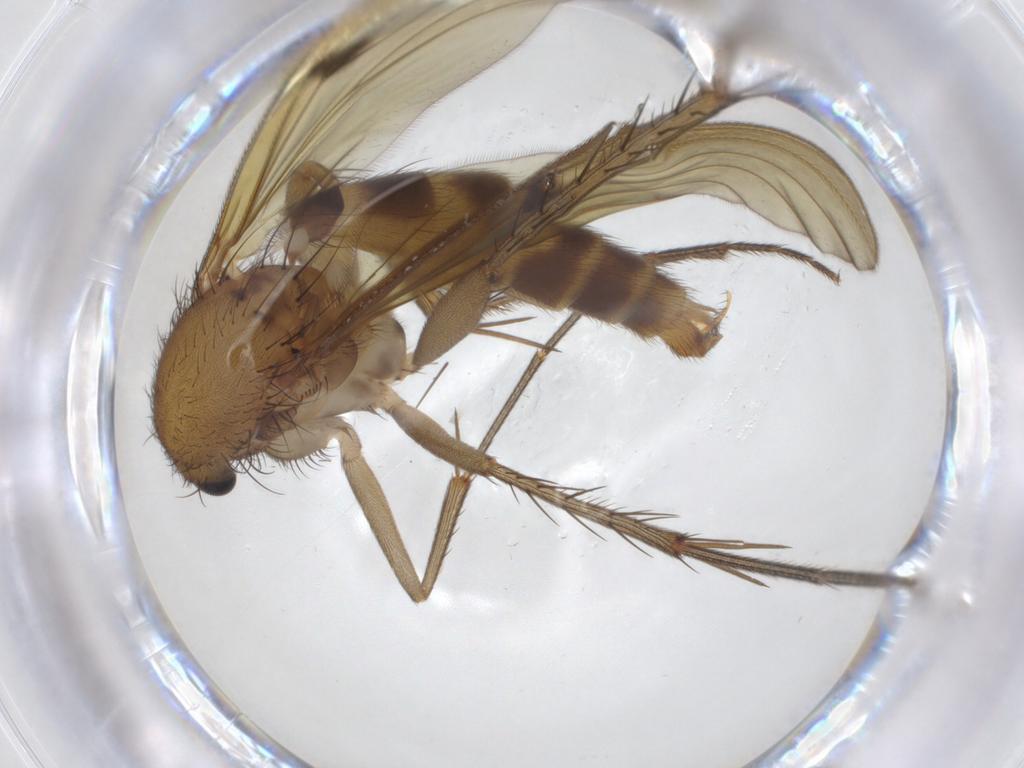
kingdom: Animalia
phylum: Arthropoda
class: Insecta
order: Diptera
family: Mycetophilidae
